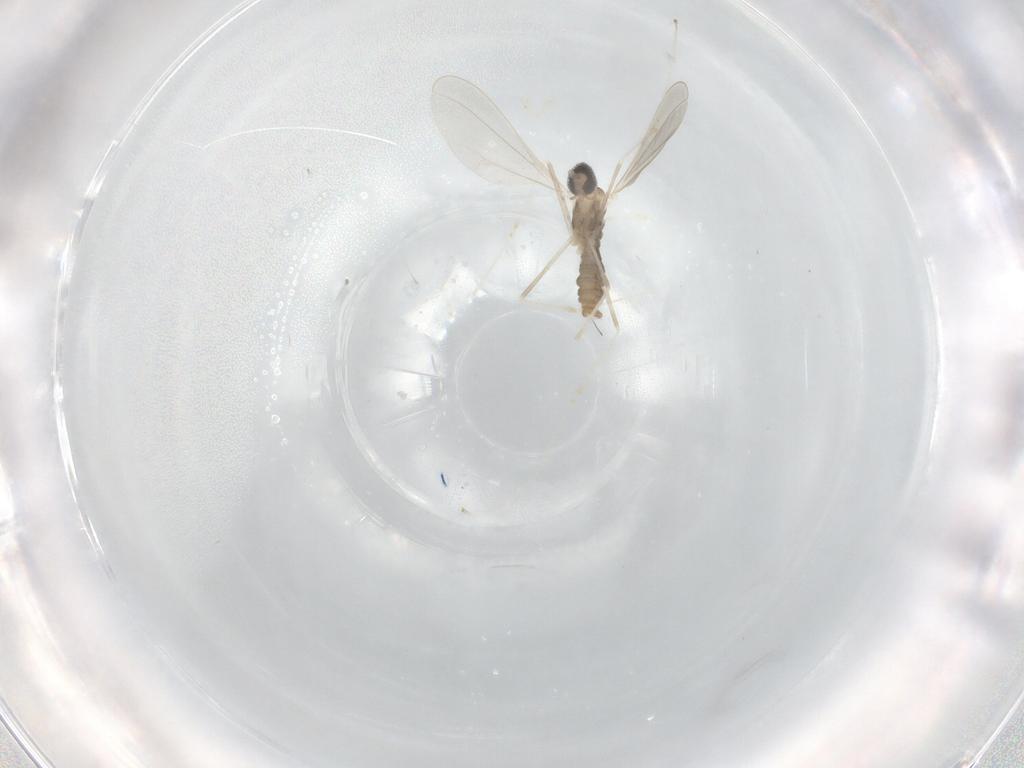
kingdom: Animalia
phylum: Arthropoda
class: Insecta
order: Diptera
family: Cecidomyiidae
